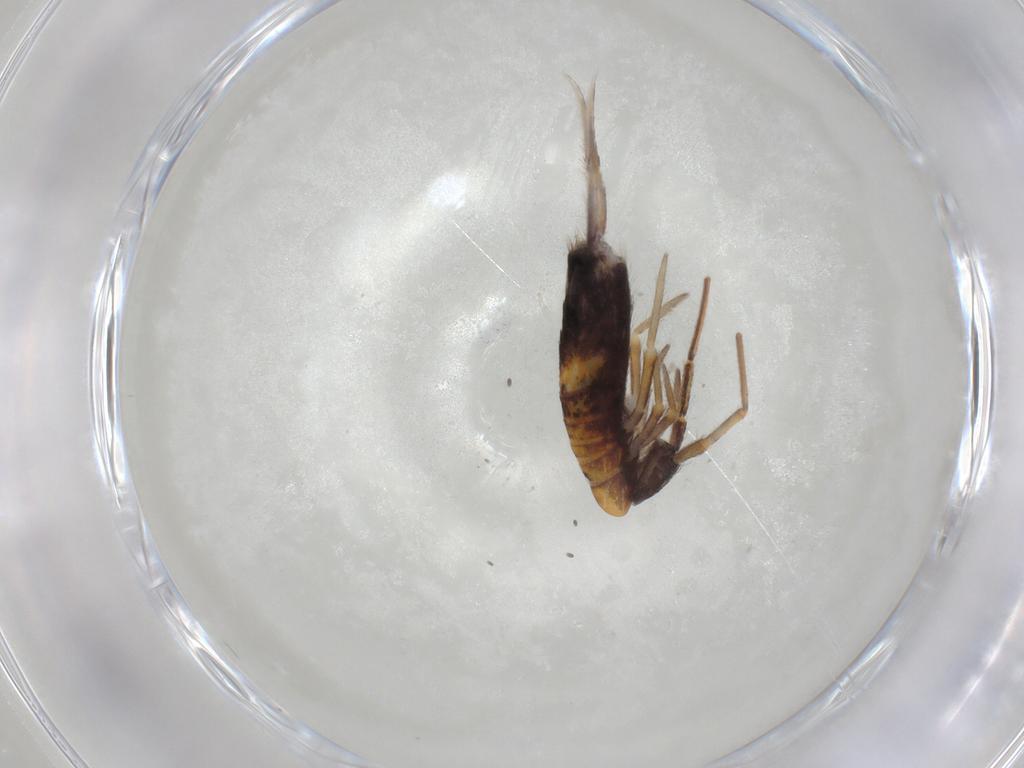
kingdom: Animalia
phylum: Arthropoda
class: Collembola
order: Entomobryomorpha
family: Entomobryidae
